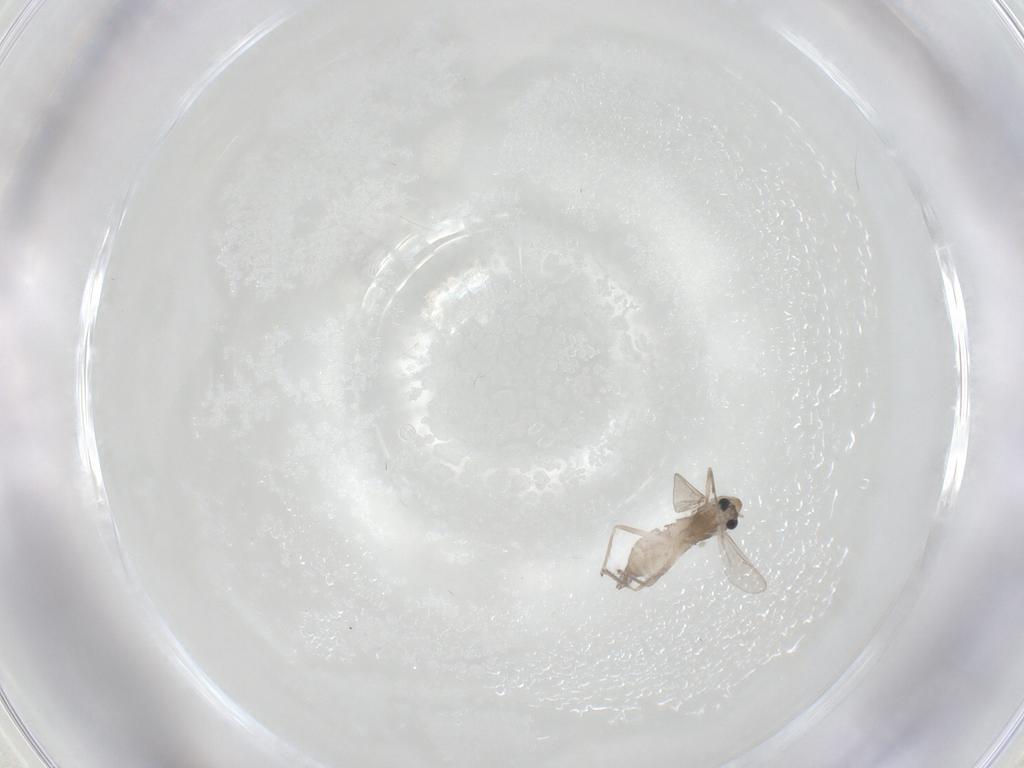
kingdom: Animalia
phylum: Arthropoda
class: Insecta
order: Diptera
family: Chironomidae
